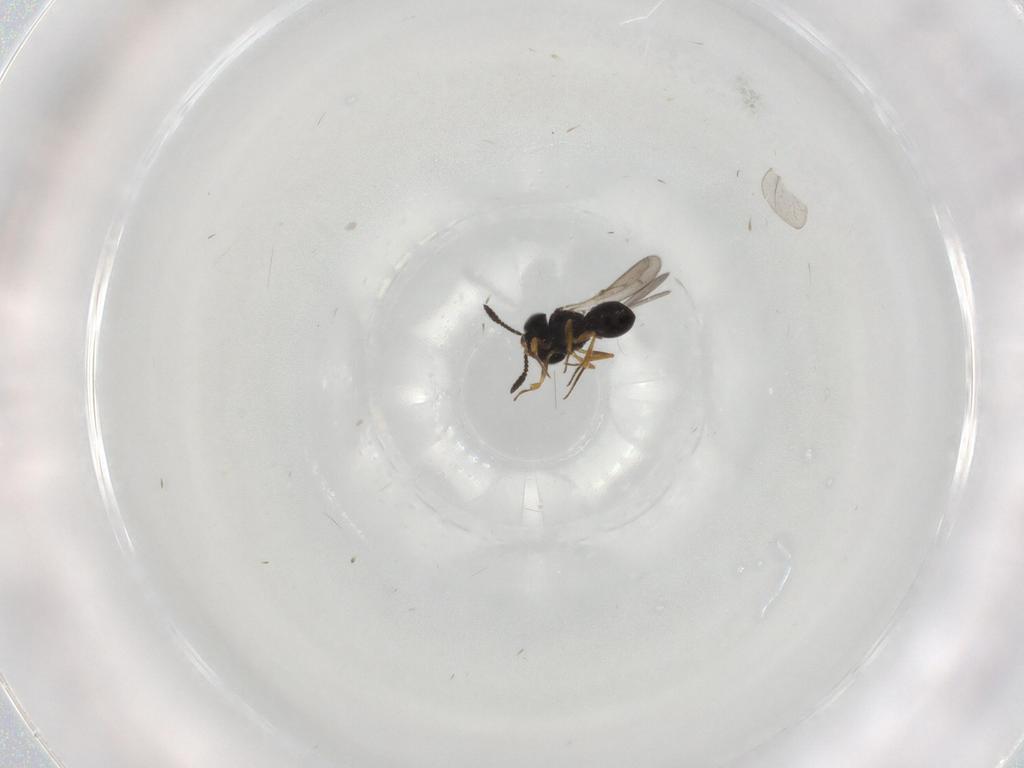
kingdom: Animalia
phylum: Arthropoda
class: Insecta
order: Hymenoptera
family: Scelionidae
